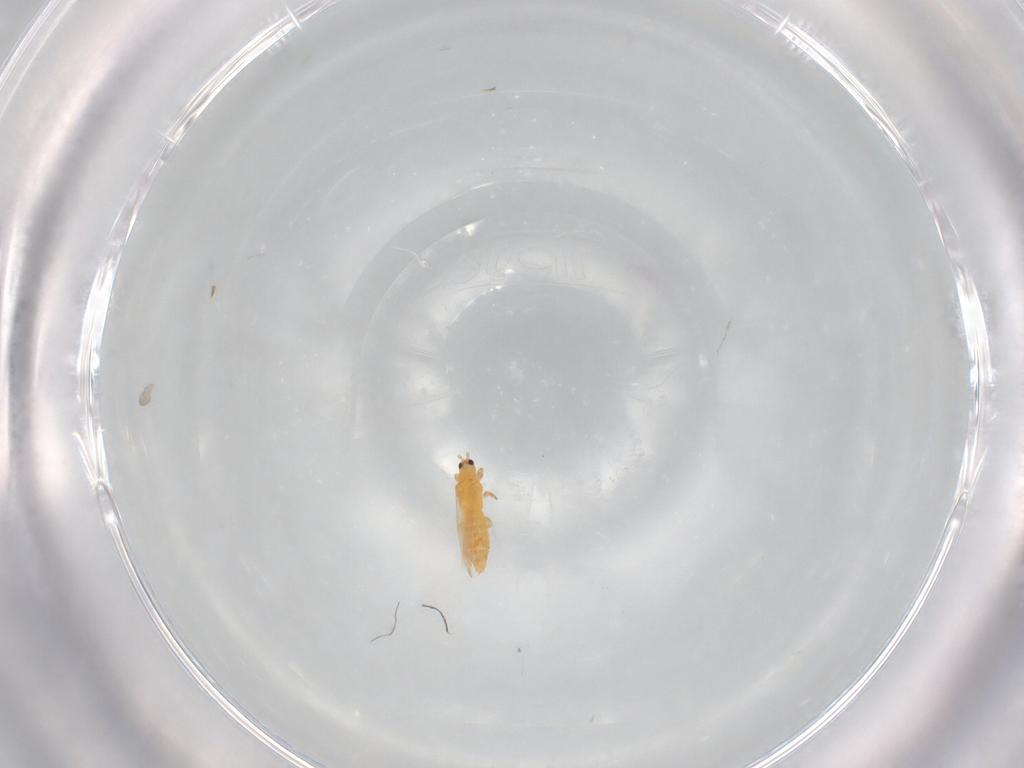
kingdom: Animalia
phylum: Arthropoda
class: Insecta
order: Thysanoptera
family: Thripidae
